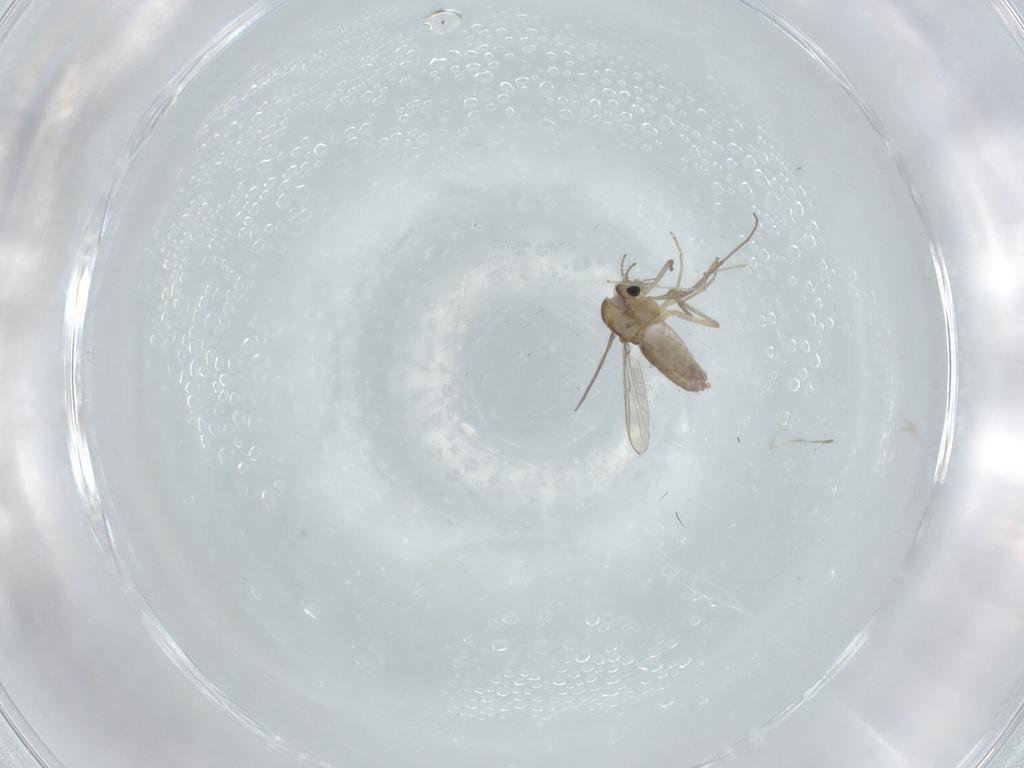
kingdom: Animalia
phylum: Arthropoda
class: Insecta
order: Diptera
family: Chironomidae
